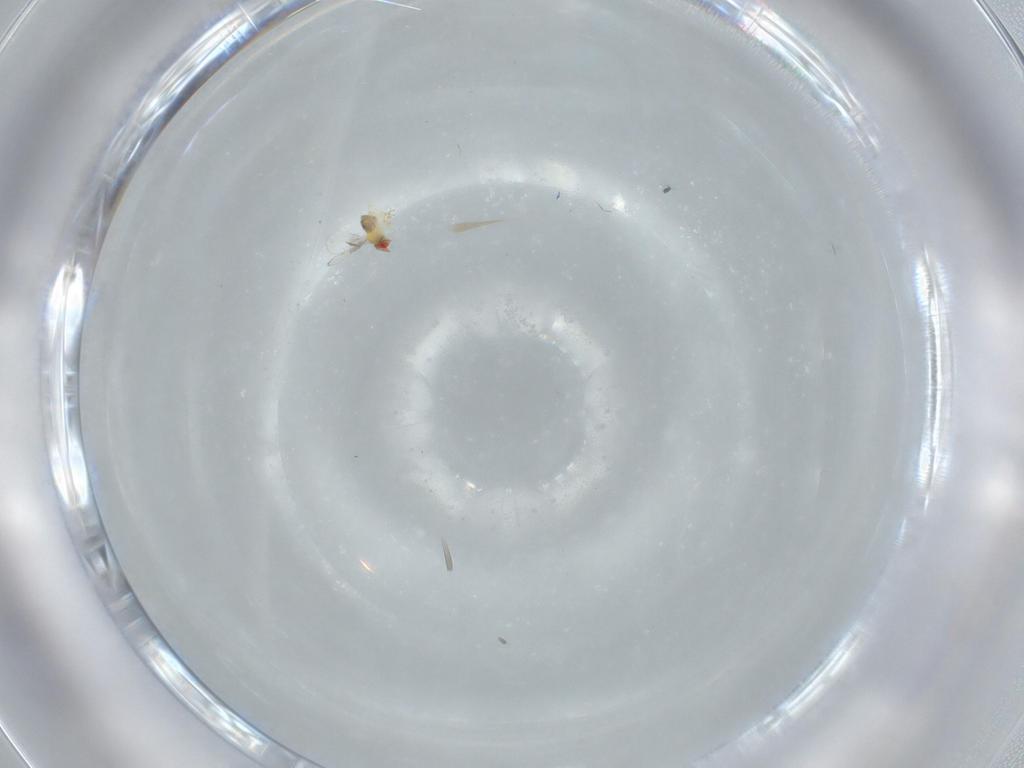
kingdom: Animalia
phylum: Arthropoda
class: Insecta
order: Hymenoptera
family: Trichogrammatidae
